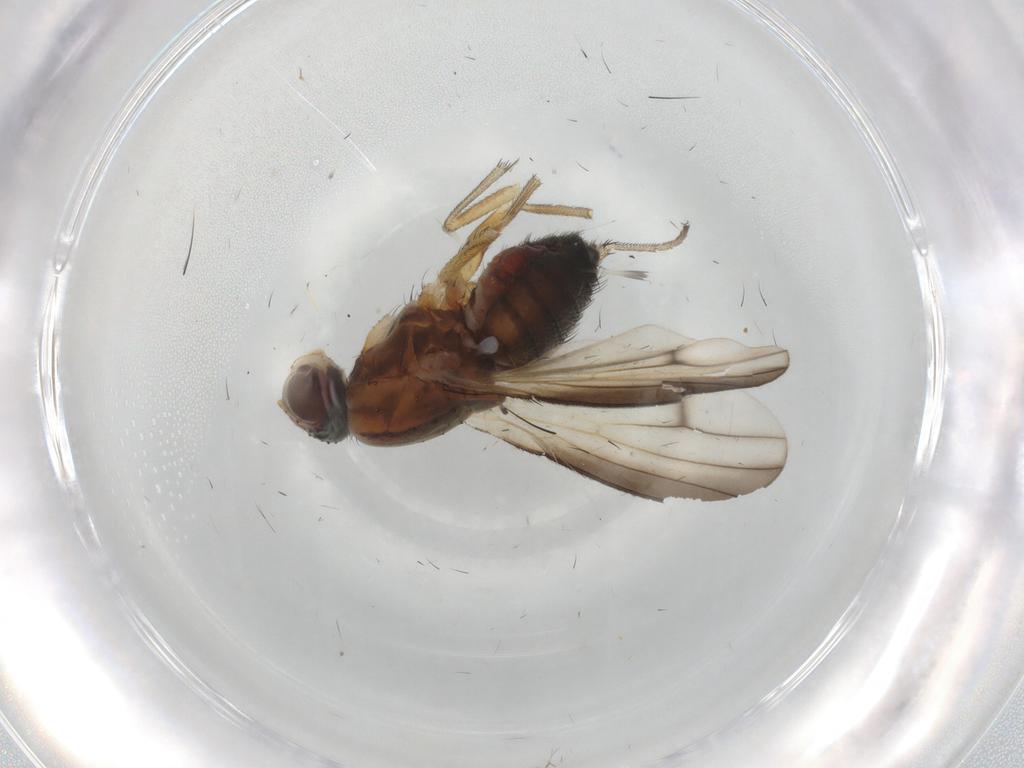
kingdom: Animalia
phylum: Arthropoda
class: Insecta
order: Diptera
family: Heleomyzidae
